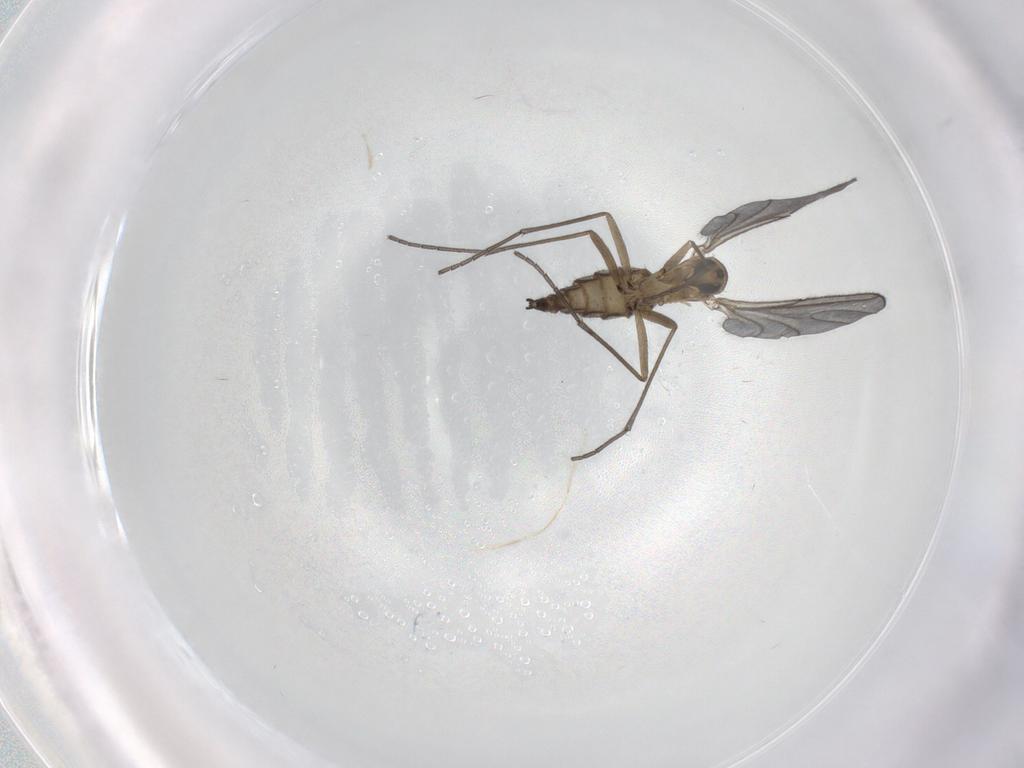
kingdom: Animalia
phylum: Arthropoda
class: Insecta
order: Diptera
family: Sciaridae
